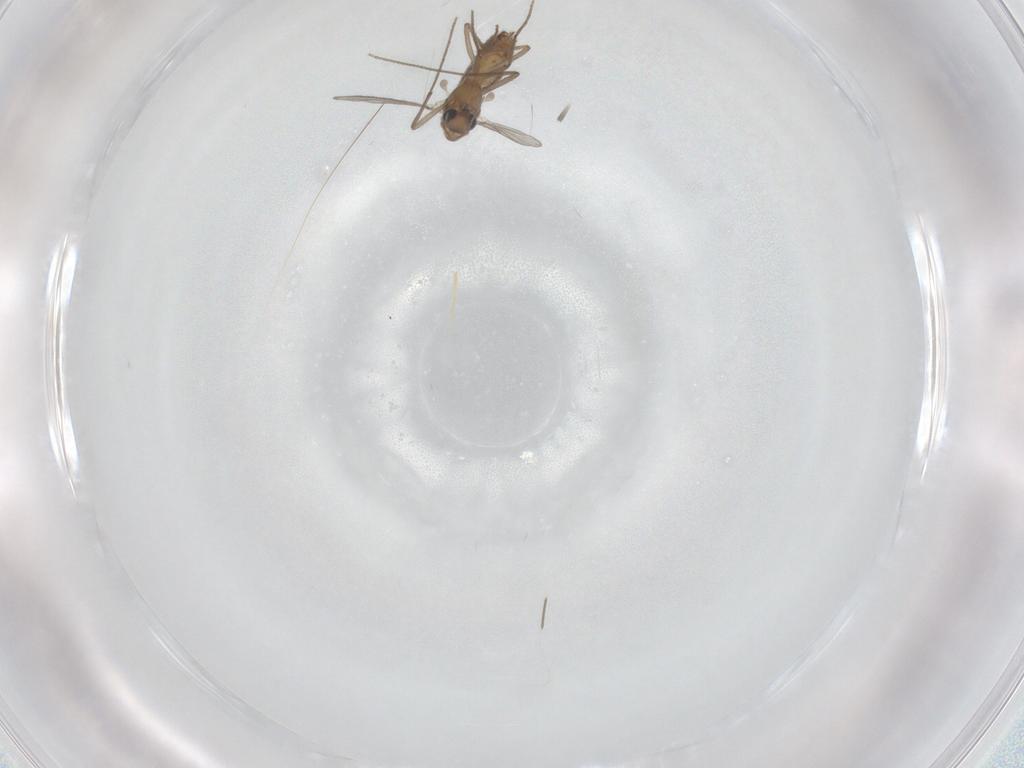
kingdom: Animalia
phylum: Arthropoda
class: Insecta
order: Diptera
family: Chironomidae
